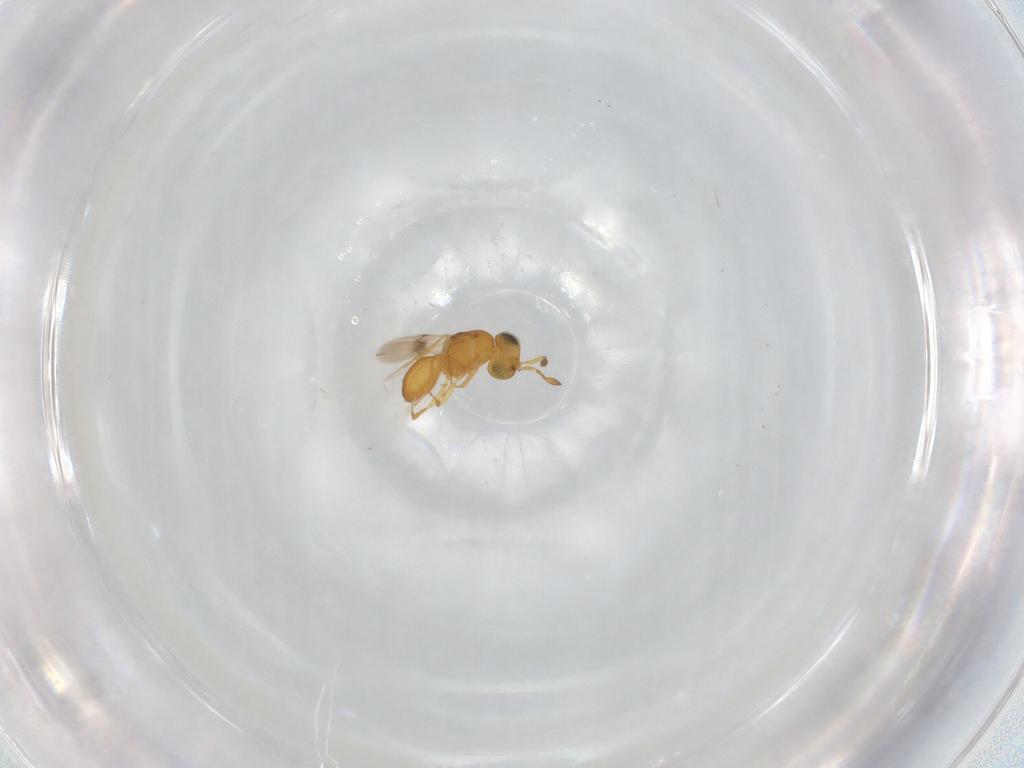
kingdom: Animalia
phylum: Arthropoda
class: Insecta
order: Hymenoptera
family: Scelionidae
